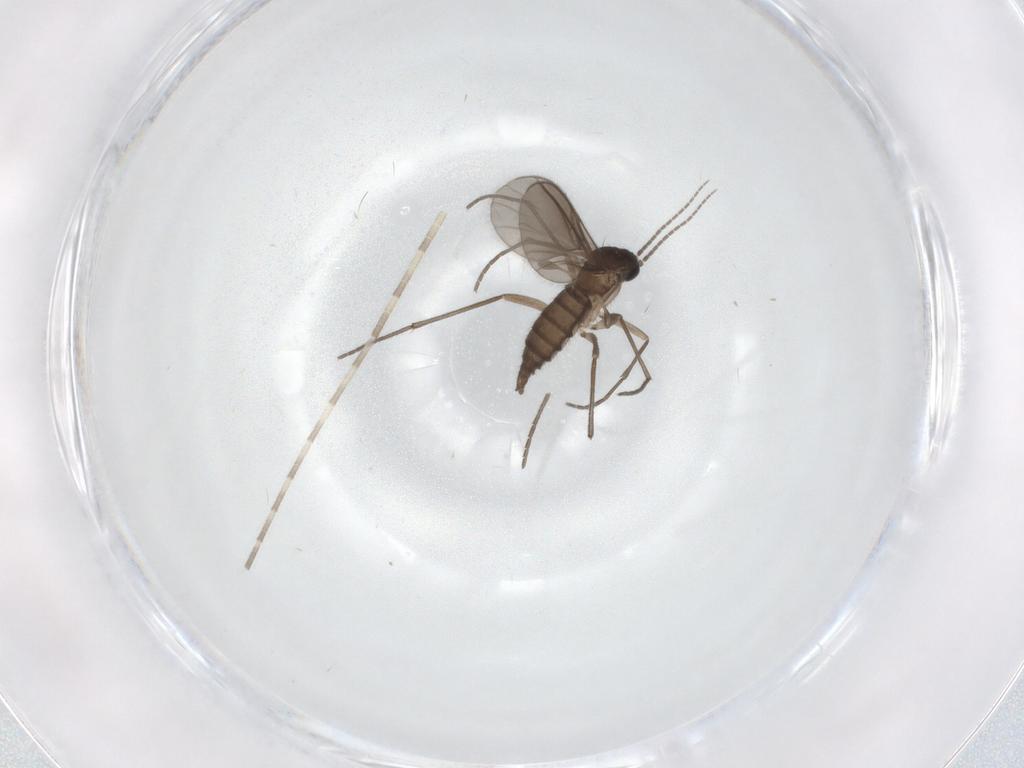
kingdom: Animalia
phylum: Arthropoda
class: Insecta
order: Diptera
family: Sciaridae
